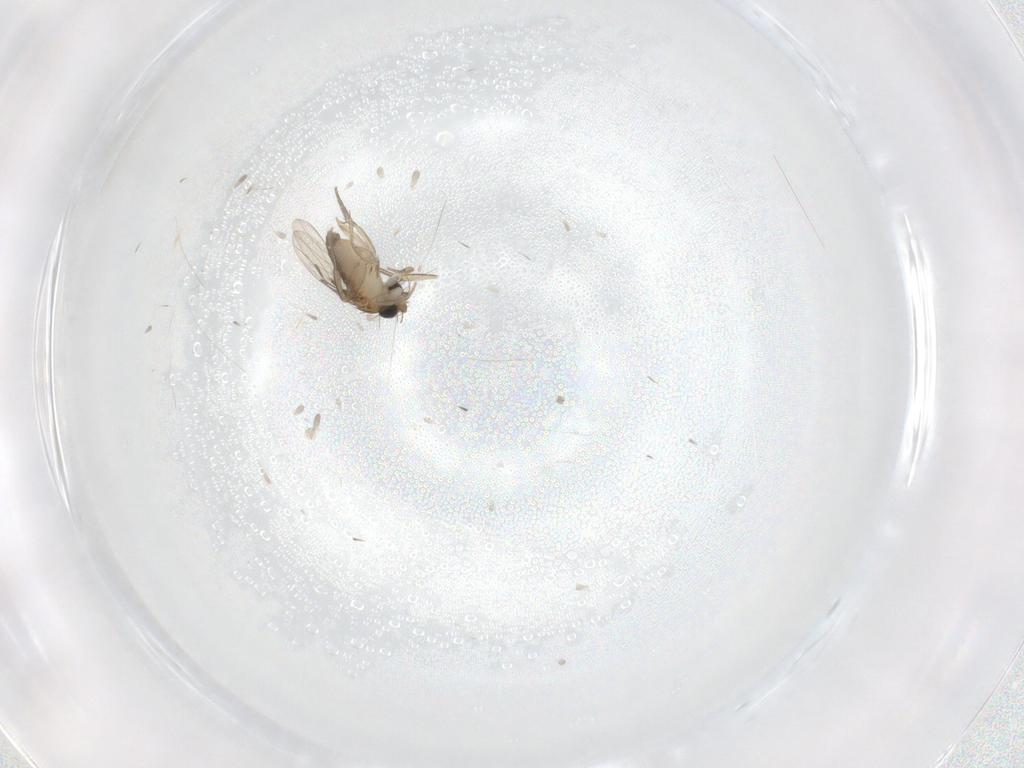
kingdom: Animalia
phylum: Arthropoda
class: Insecta
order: Diptera
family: Phoridae
